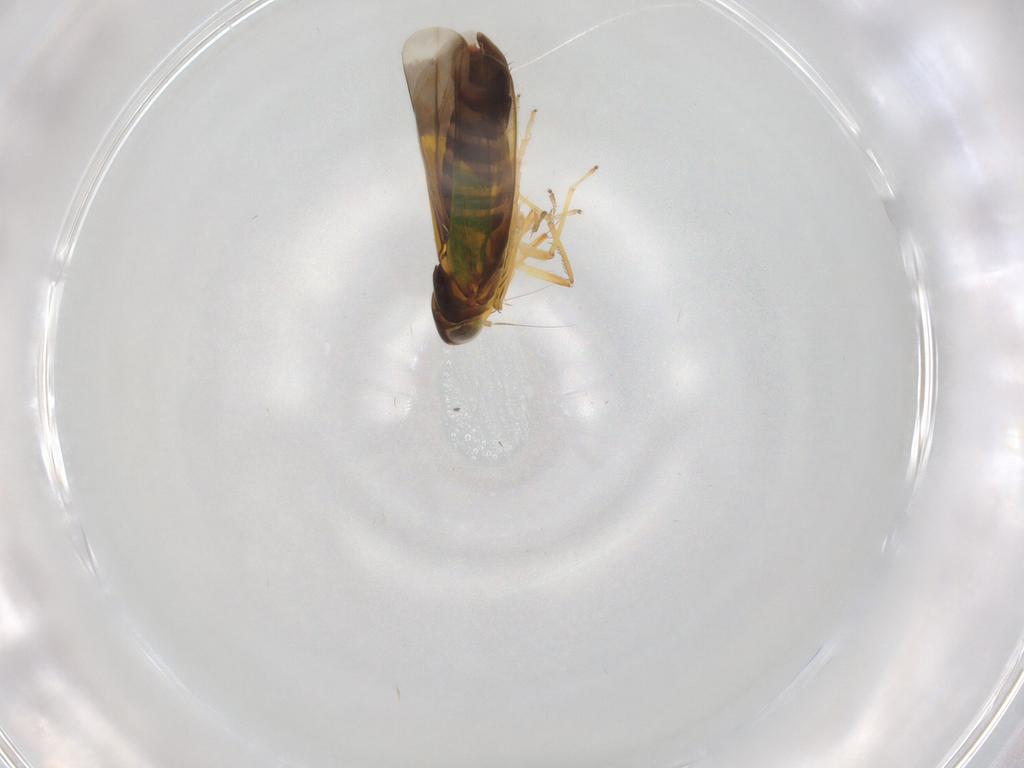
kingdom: Animalia
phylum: Arthropoda
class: Insecta
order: Hemiptera
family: Cicadellidae
